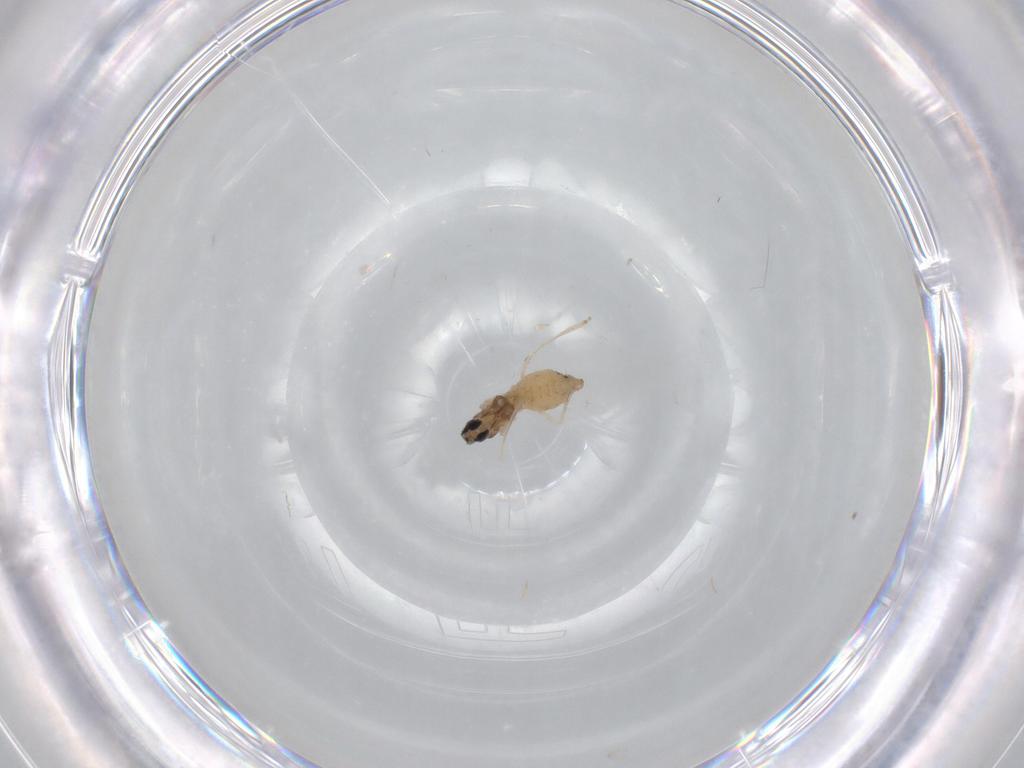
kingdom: Animalia
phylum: Arthropoda
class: Insecta
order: Diptera
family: Cecidomyiidae
